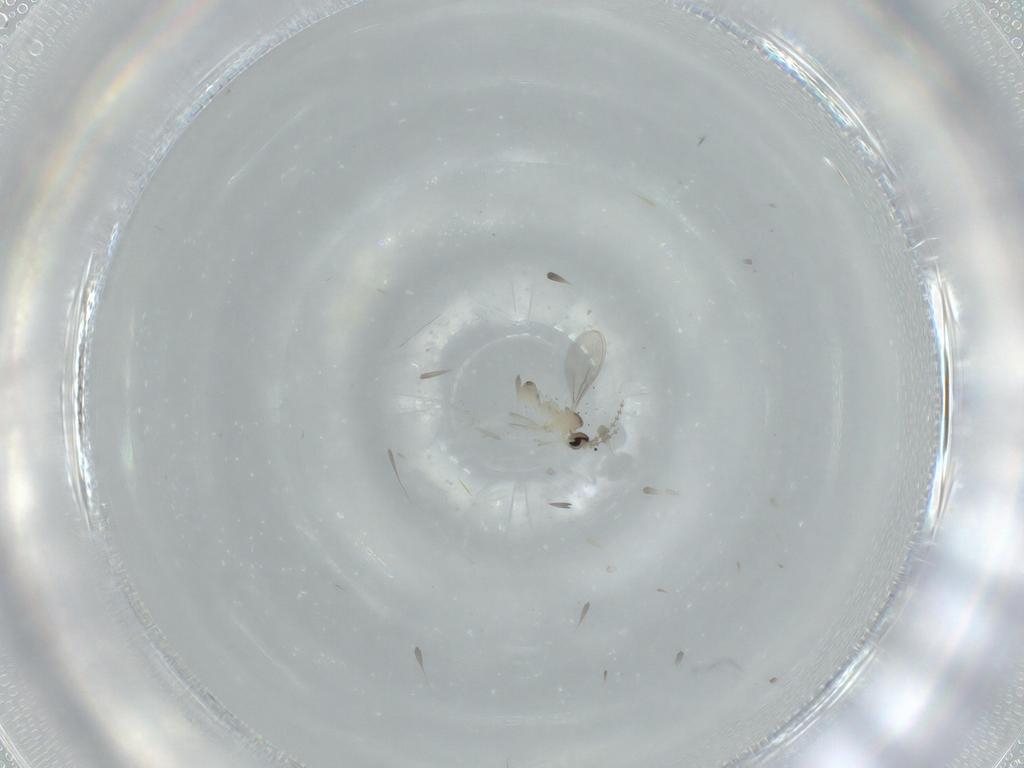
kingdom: Animalia
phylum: Arthropoda
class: Insecta
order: Diptera
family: Cecidomyiidae
